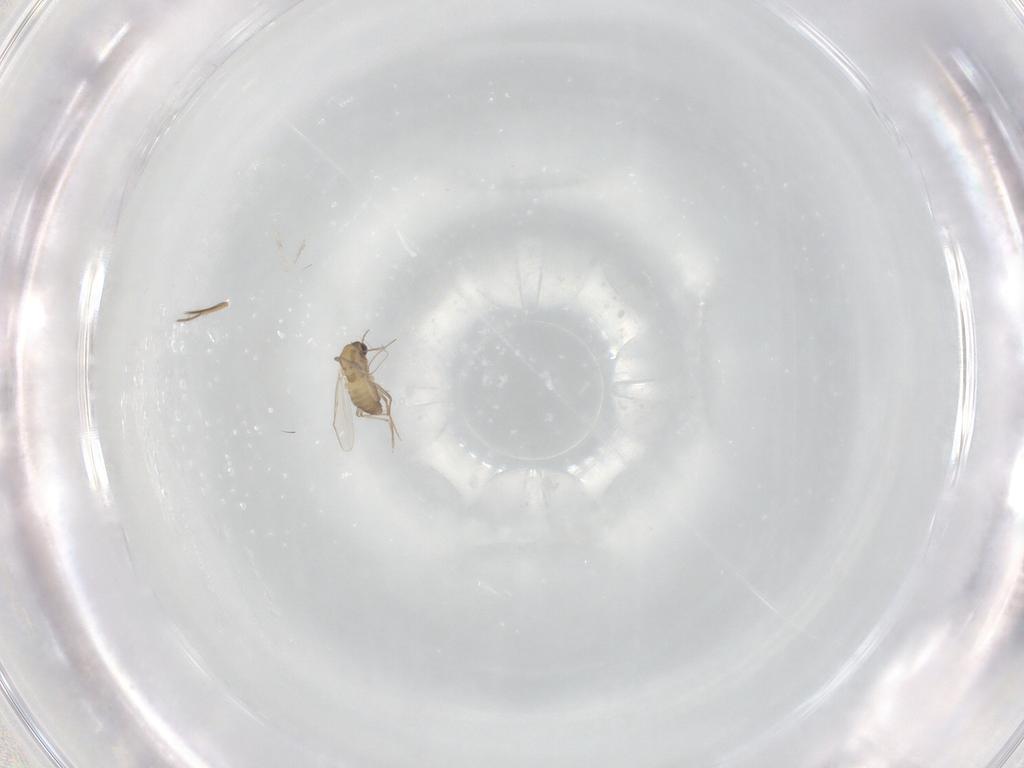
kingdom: Animalia
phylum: Arthropoda
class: Insecta
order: Diptera
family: Chironomidae
